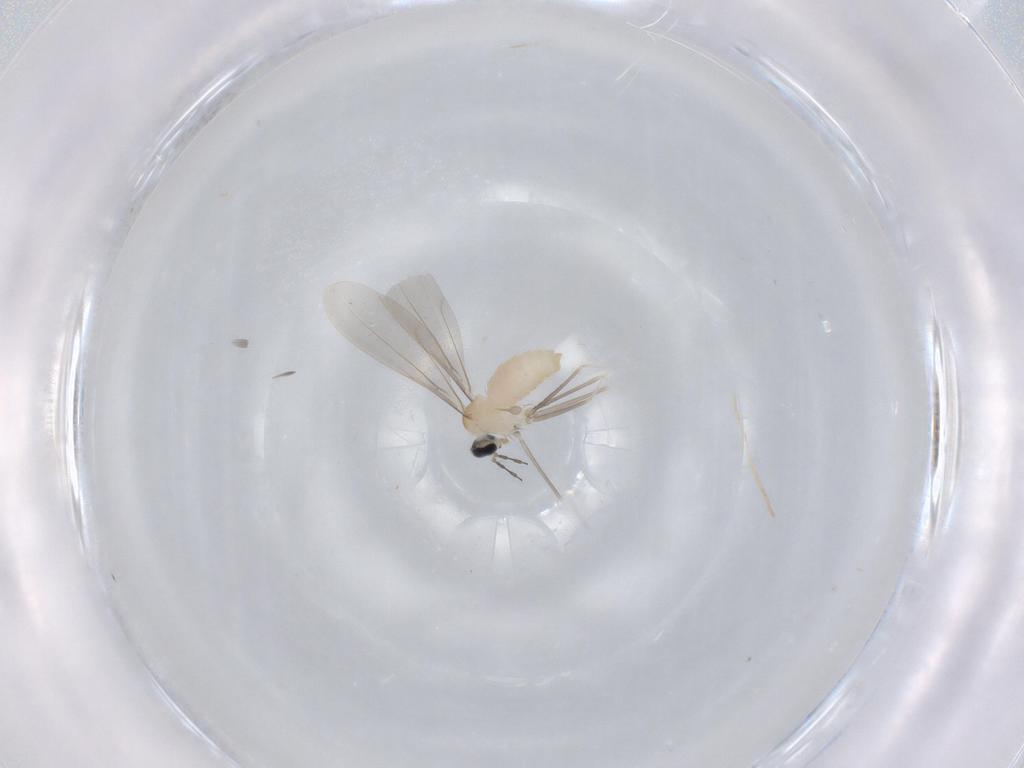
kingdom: Animalia
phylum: Arthropoda
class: Insecta
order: Diptera
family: Cecidomyiidae
